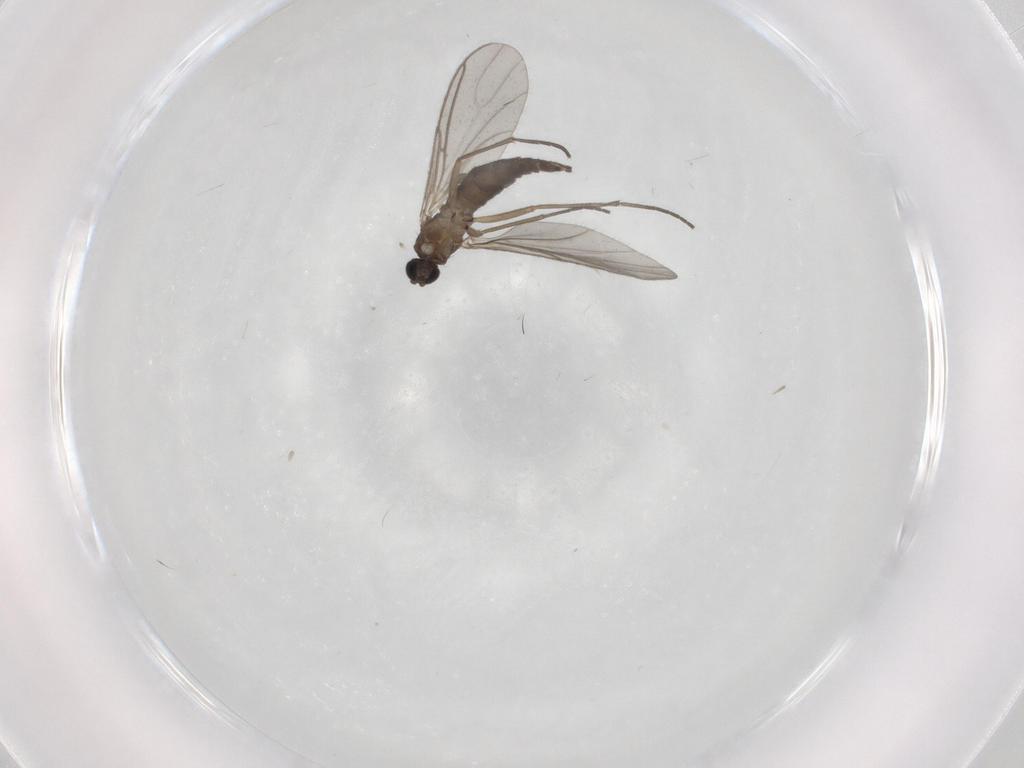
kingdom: Animalia
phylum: Arthropoda
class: Insecta
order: Diptera
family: Sciaridae
